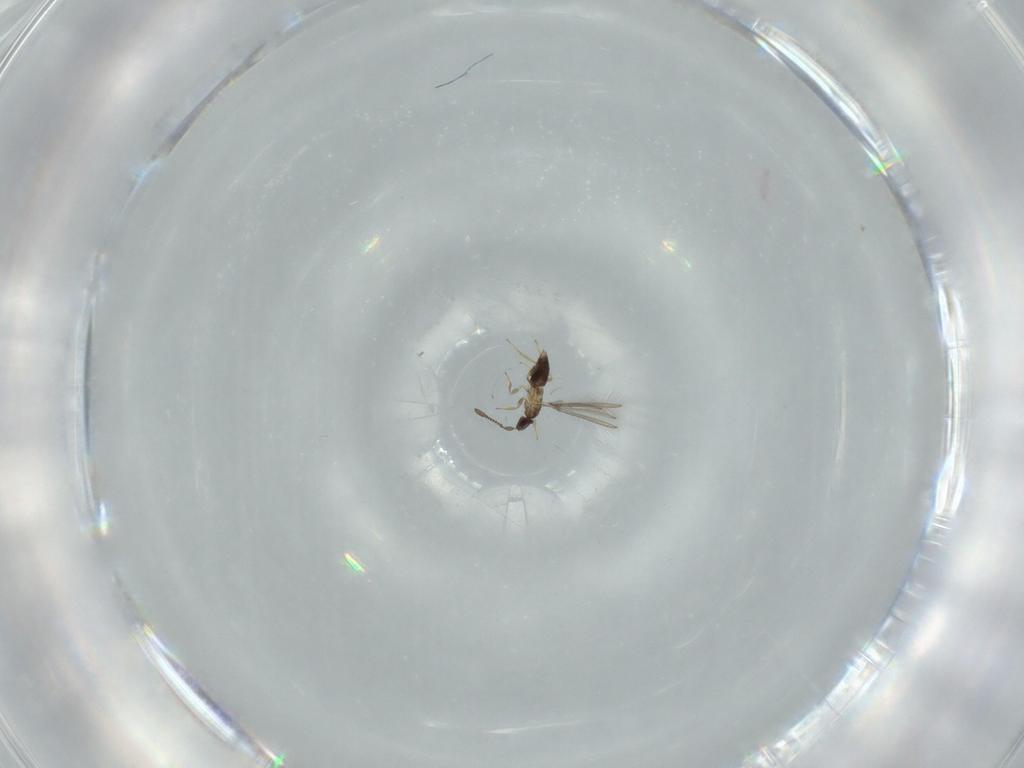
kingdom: Animalia
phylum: Arthropoda
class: Insecta
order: Hymenoptera
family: Mymaridae
